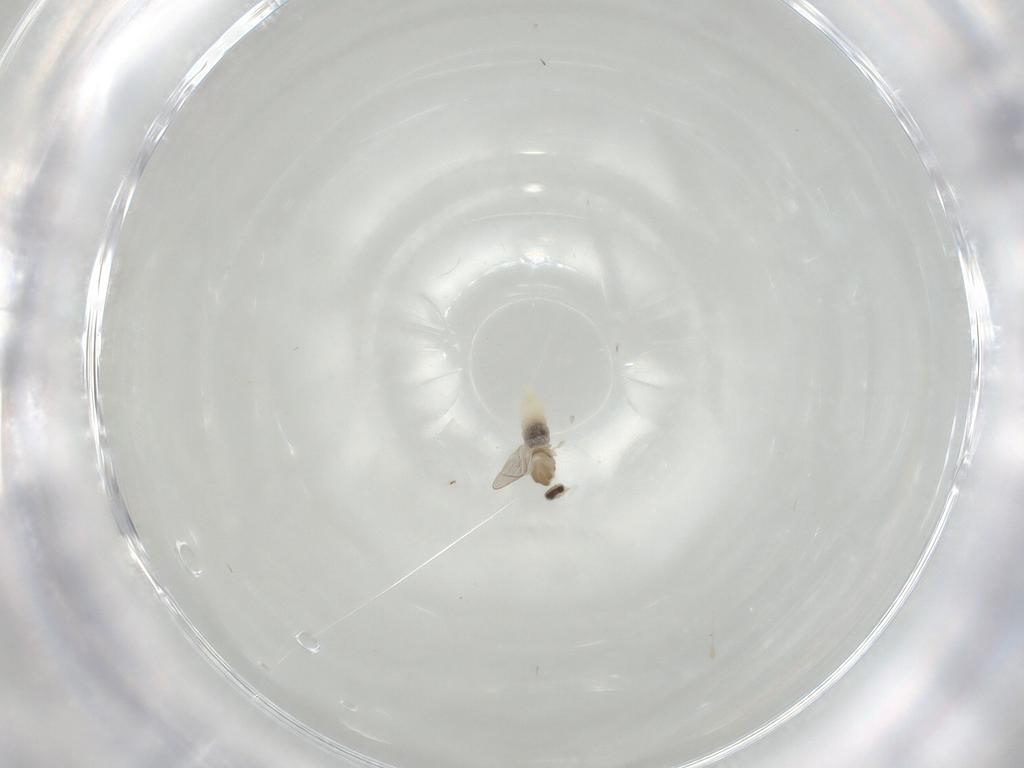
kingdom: Animalia
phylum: Arthropoda
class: Insecta
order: Diptera
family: Cecidomyiidae
